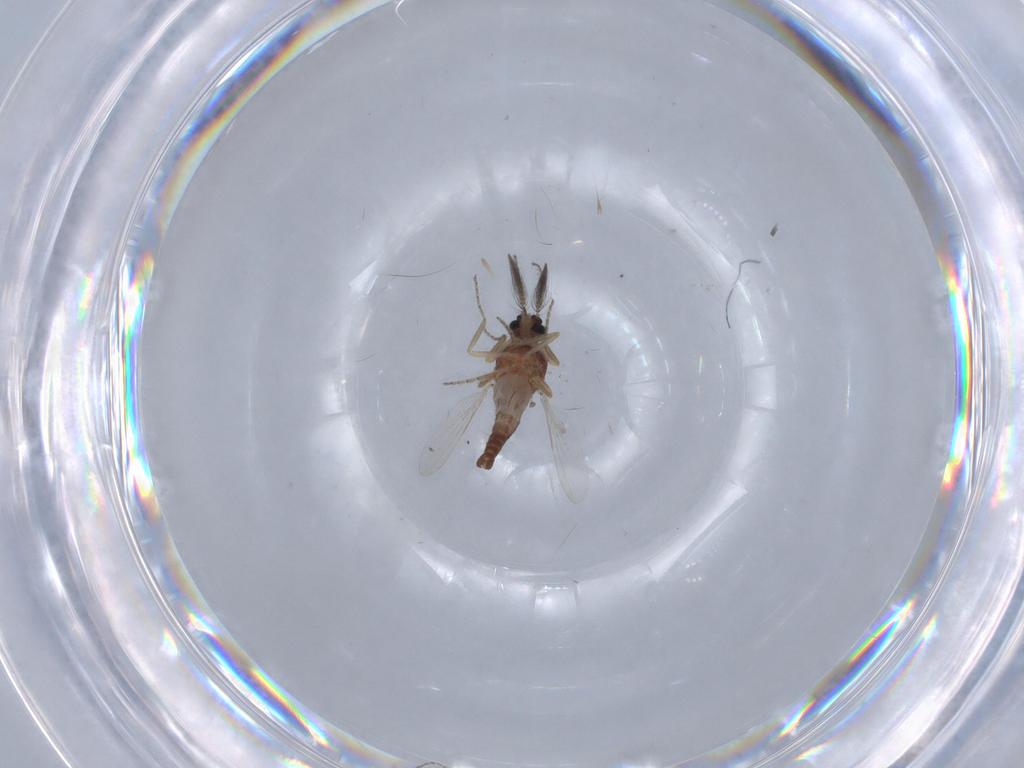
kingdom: Animalia
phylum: Arthropoda
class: Insecta
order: Diptera
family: Ceratopogonidae
